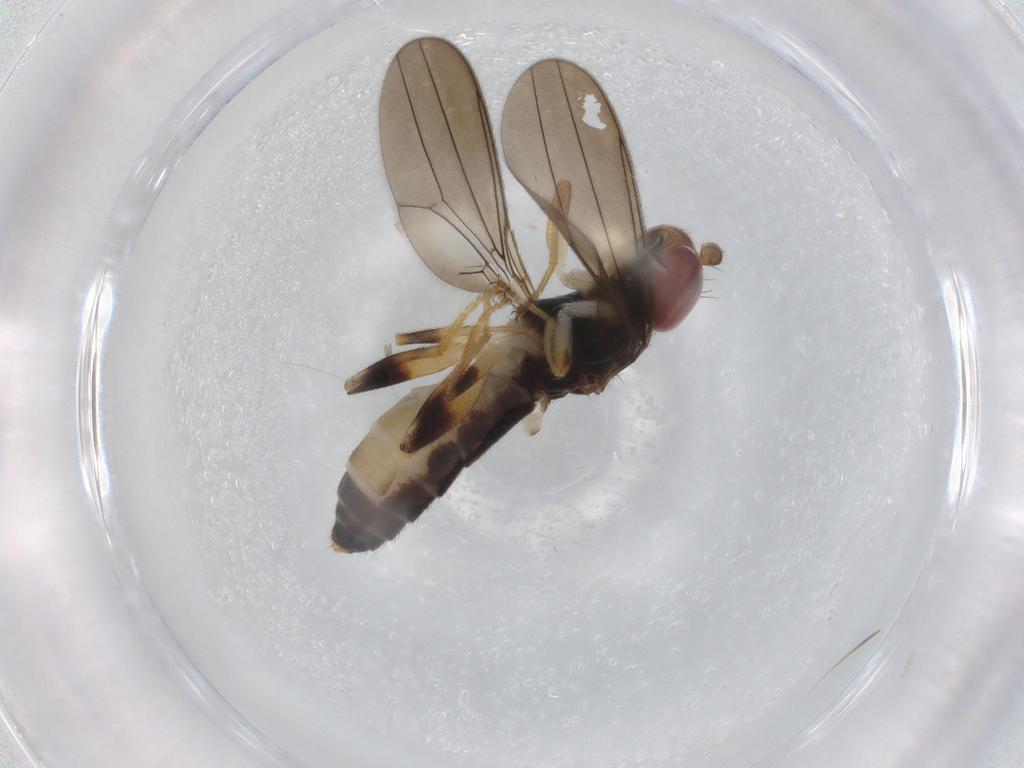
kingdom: Animalia
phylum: Arthropoda
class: Insecta
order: Diptera
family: Aulacigastridae
